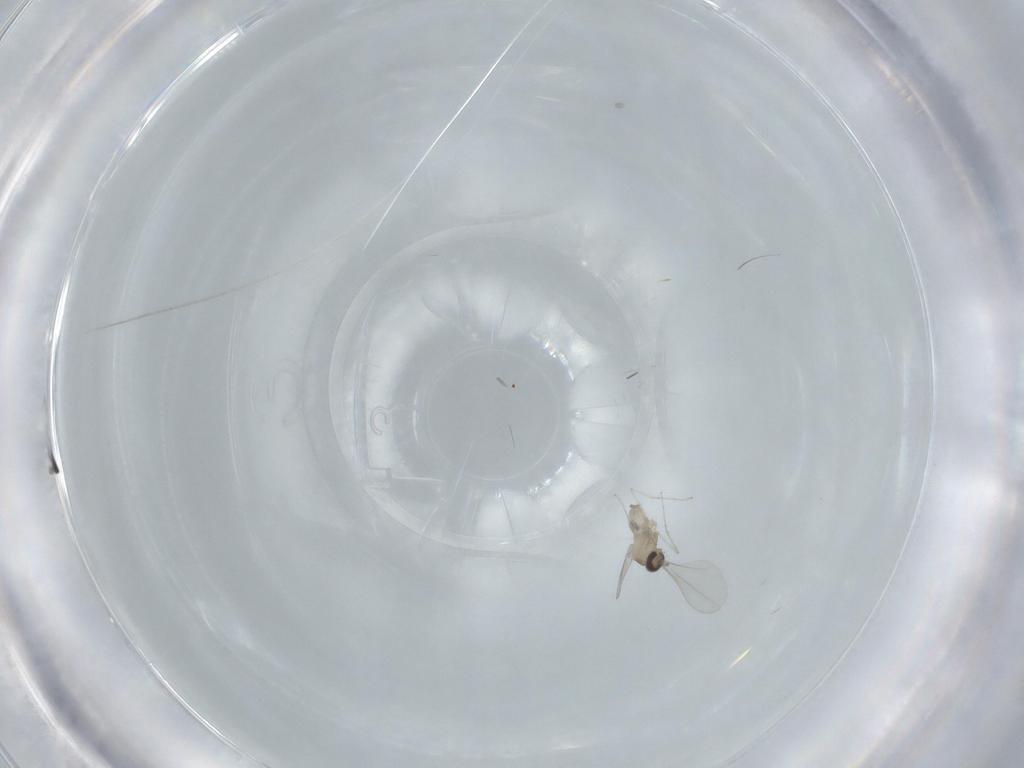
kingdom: Animalia
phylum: Arthropoda
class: Insecta
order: Diptera
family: Cecidomyiidae
